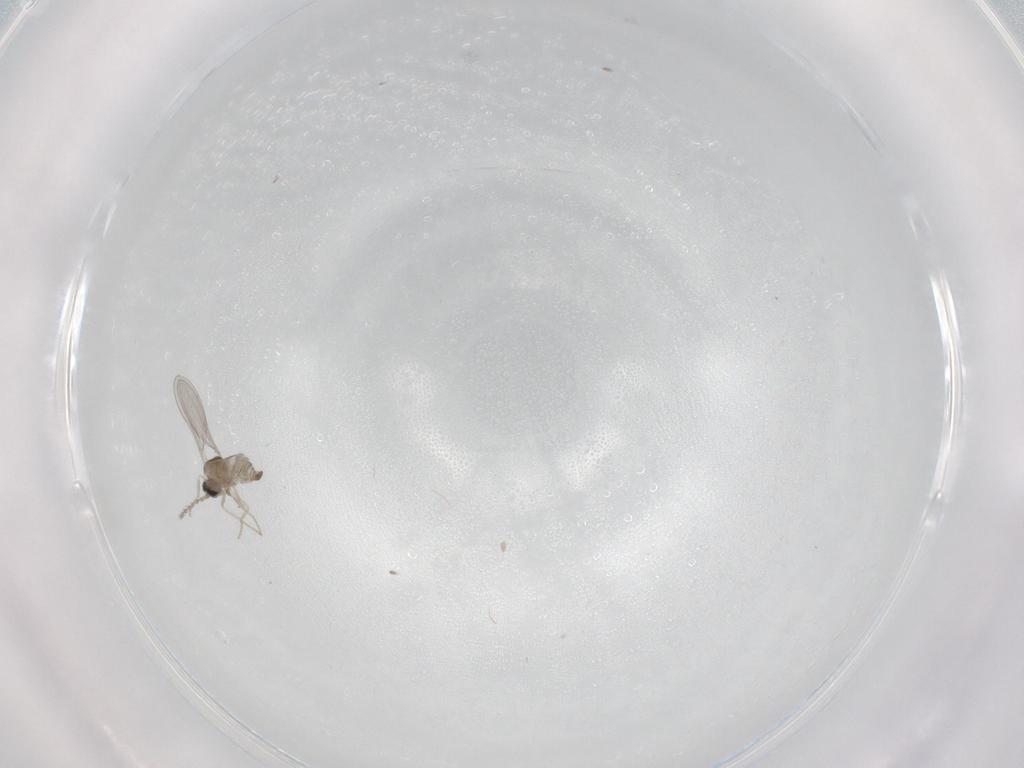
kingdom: Animalia
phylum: Arthropoda
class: Insecta
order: Diptera
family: Cecidomyiidae
